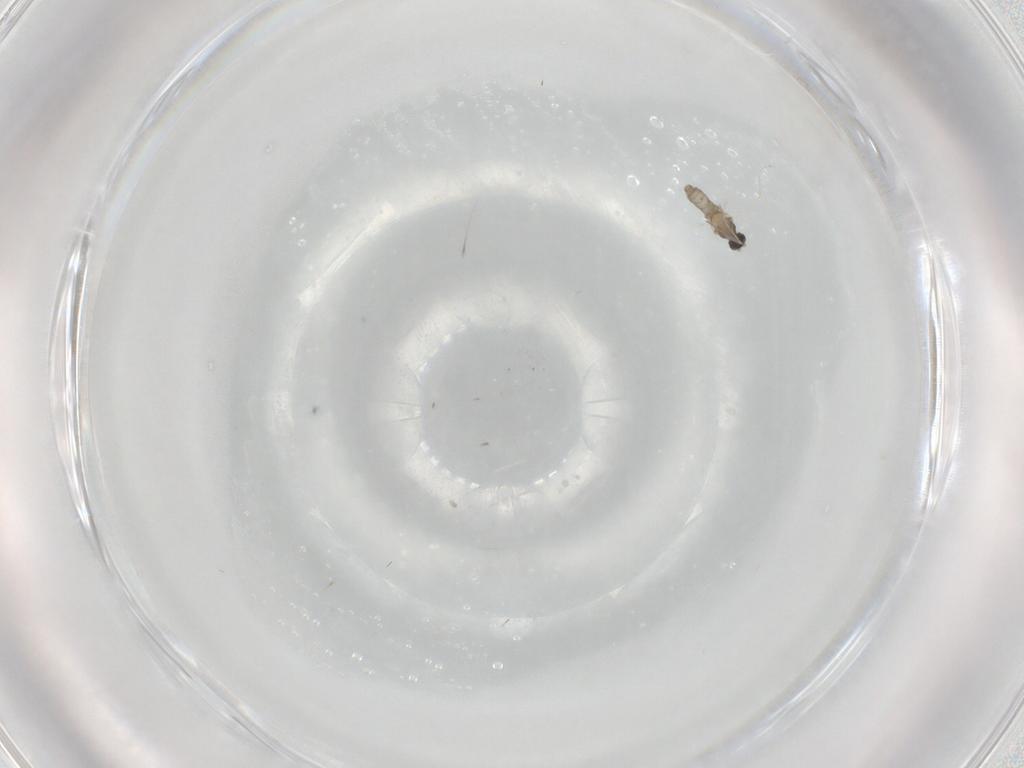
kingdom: Animalia
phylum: Arthropoda
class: Insecta
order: Diptera
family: Cecidomyiidae
